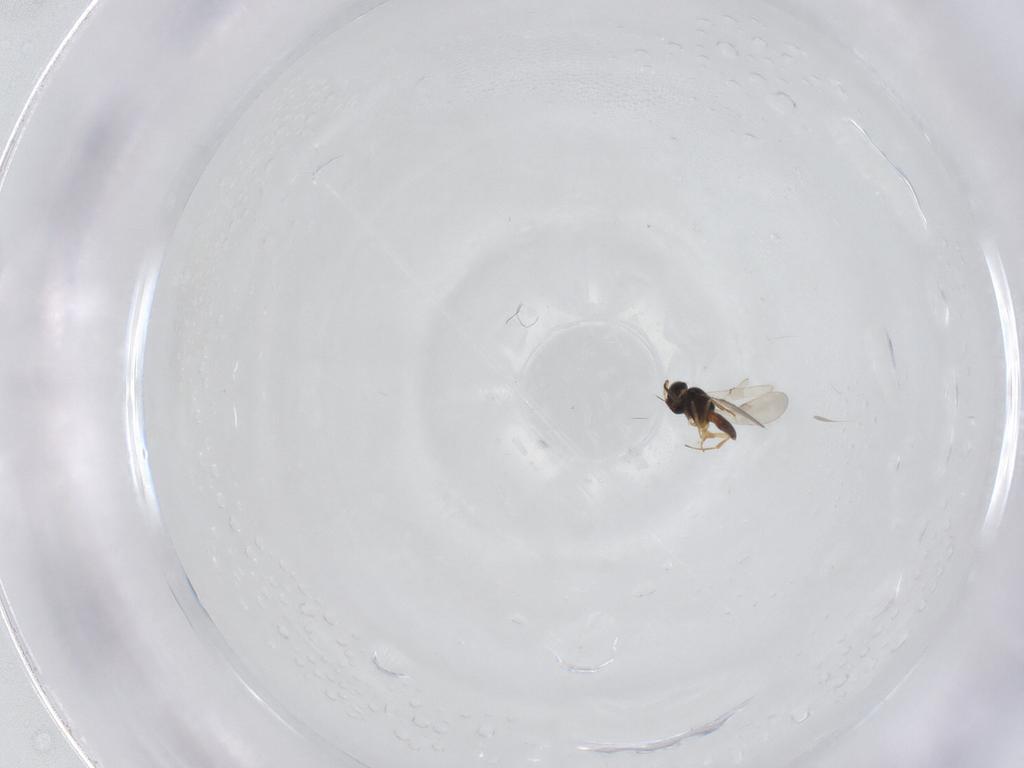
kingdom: Animalia
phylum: Arthropoda
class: Insecta
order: Hymenoptera
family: Scelionidae
